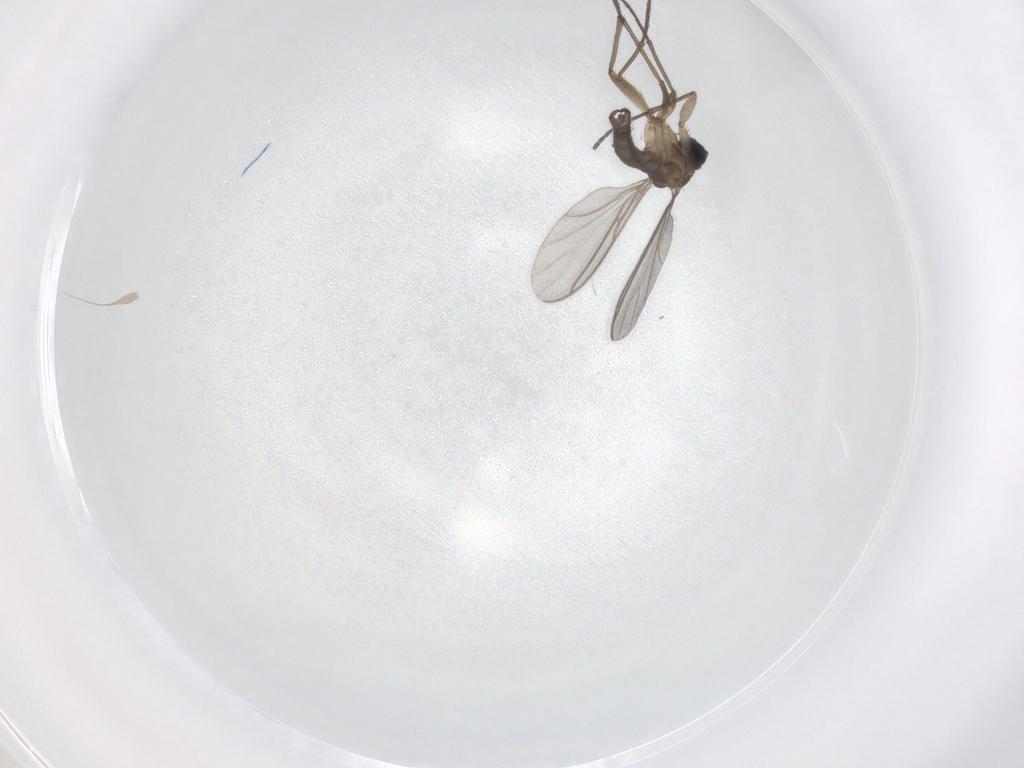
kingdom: Animalia
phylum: Arthropoda
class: Insecta
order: Diptera
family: Sciaridae
